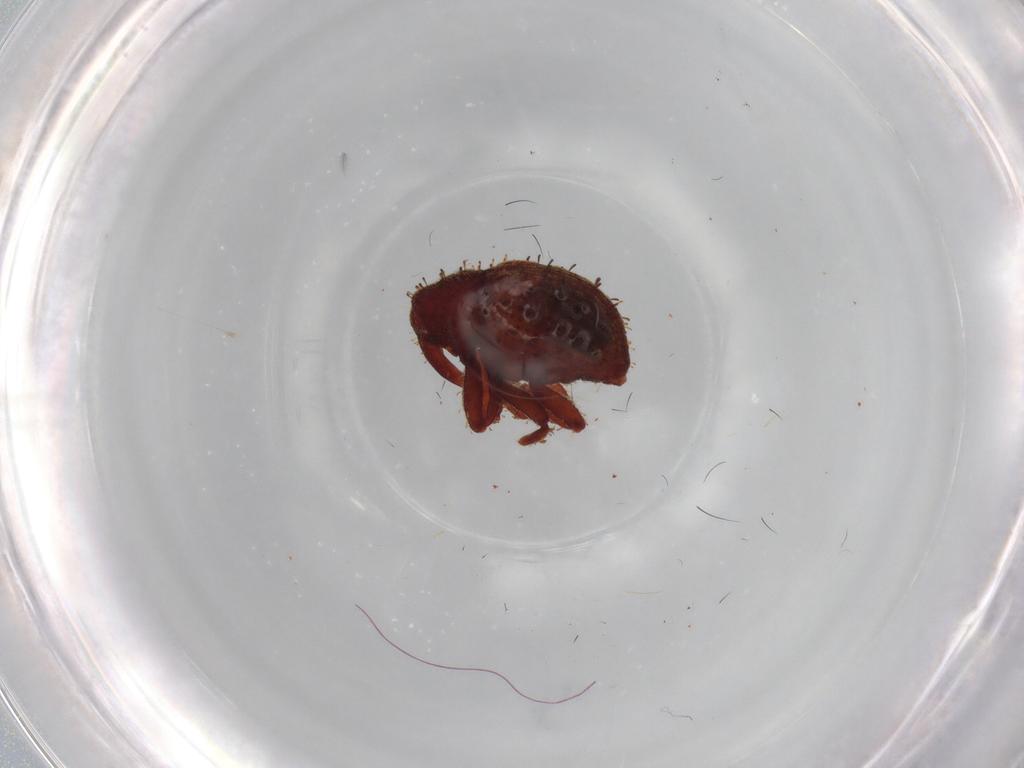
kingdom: Animalia
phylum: Arthropoda
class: Insecta
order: Coleoptera
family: Curculionidae
